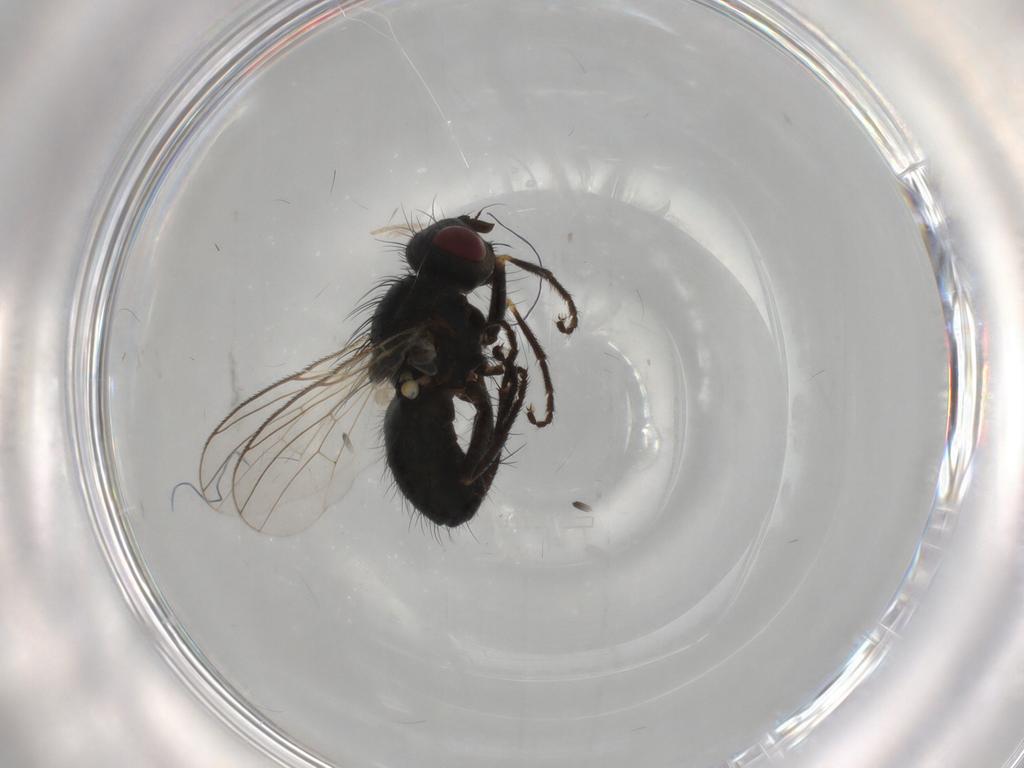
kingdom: Animalia
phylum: Arthropoda
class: Insecta
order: Diptera
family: Muscidae
